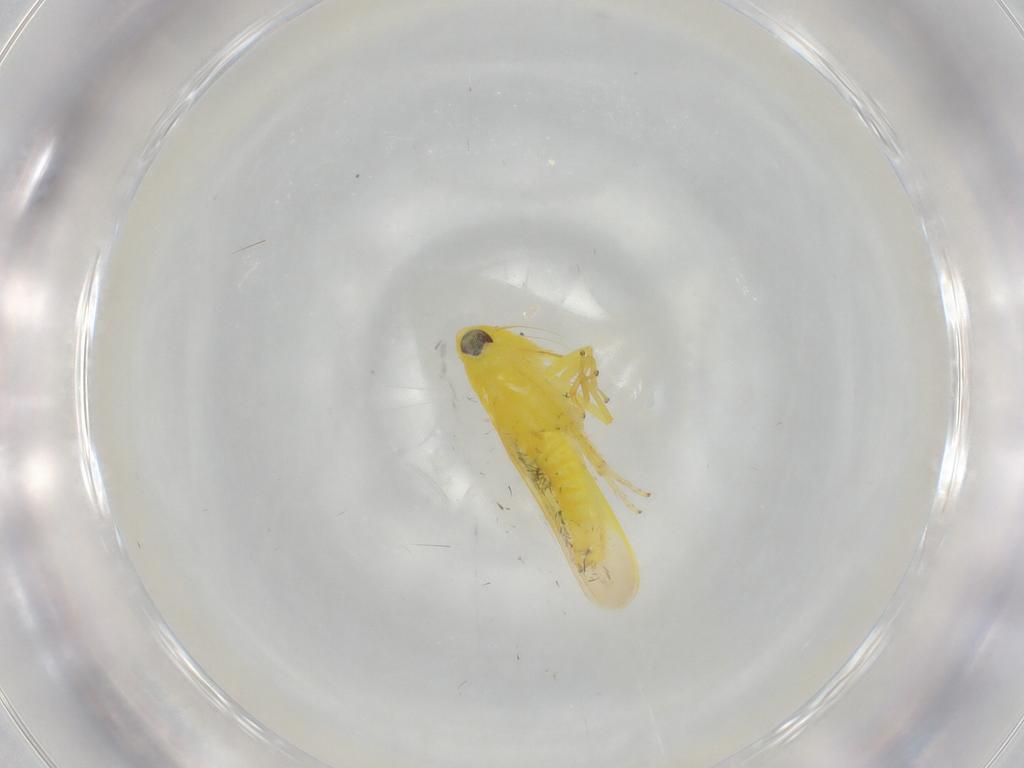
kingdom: Animalia
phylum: Arthropoda
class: Insecta
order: Hemiptera
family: Cicadellidae
